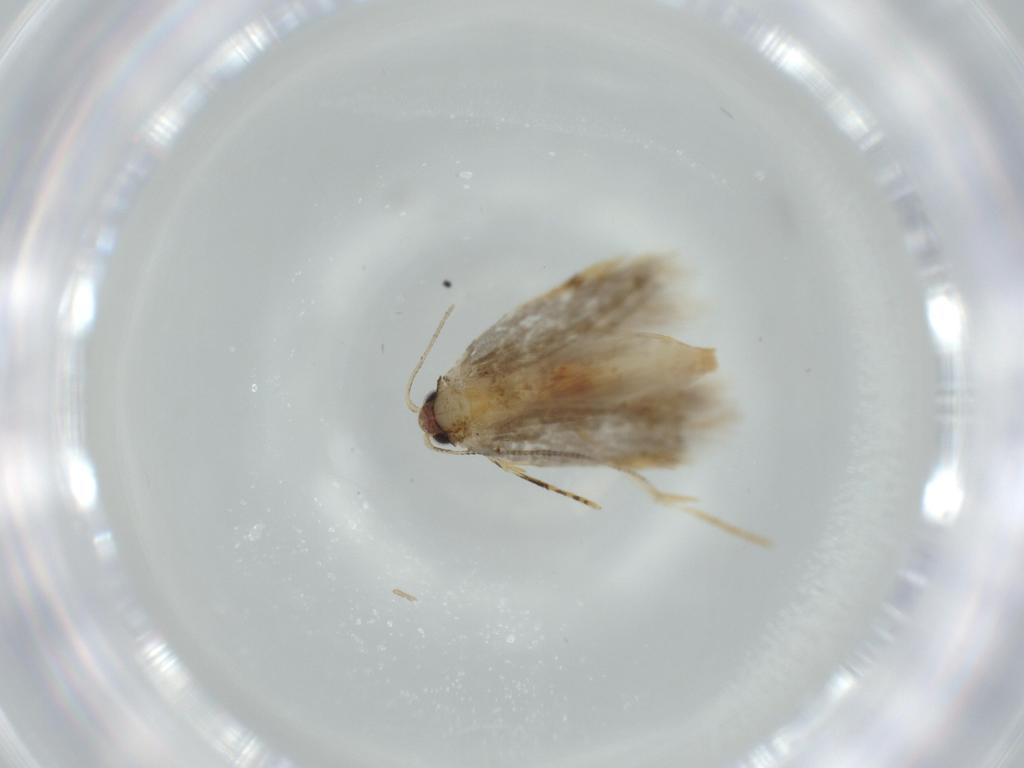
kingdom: Animalia
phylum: Arthropoda
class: Insecta
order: Lepidoptera
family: Tineidae
